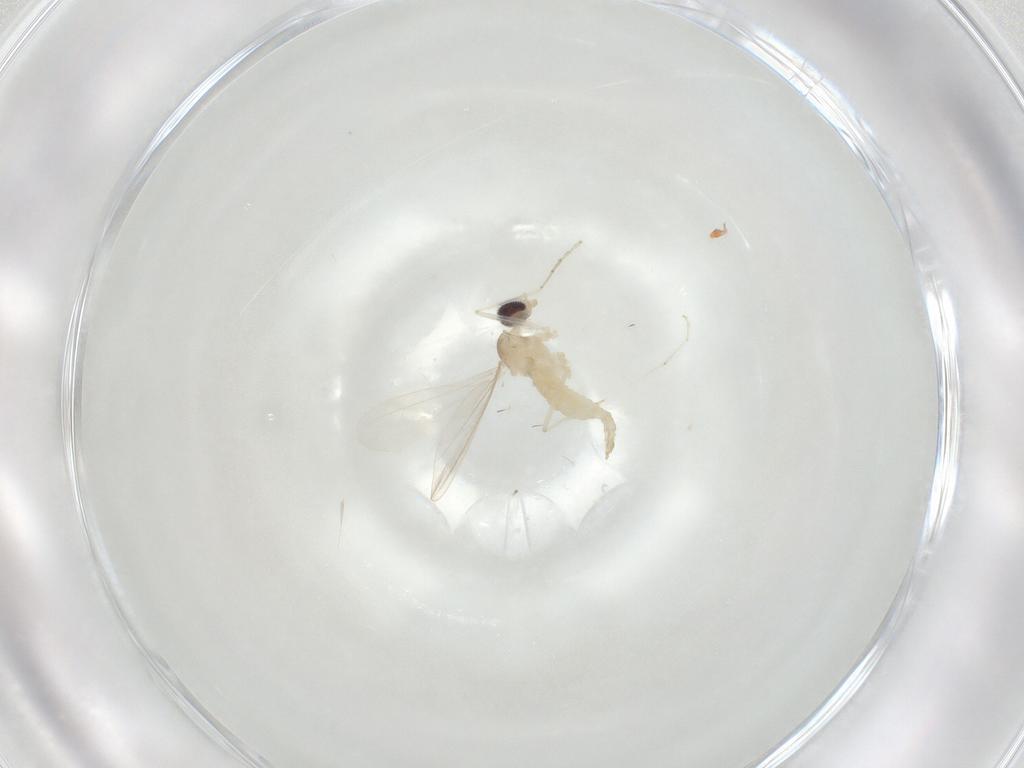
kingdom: Animalia
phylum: Arthropoda
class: Insecta
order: Diptera
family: Cecidomyiidae
